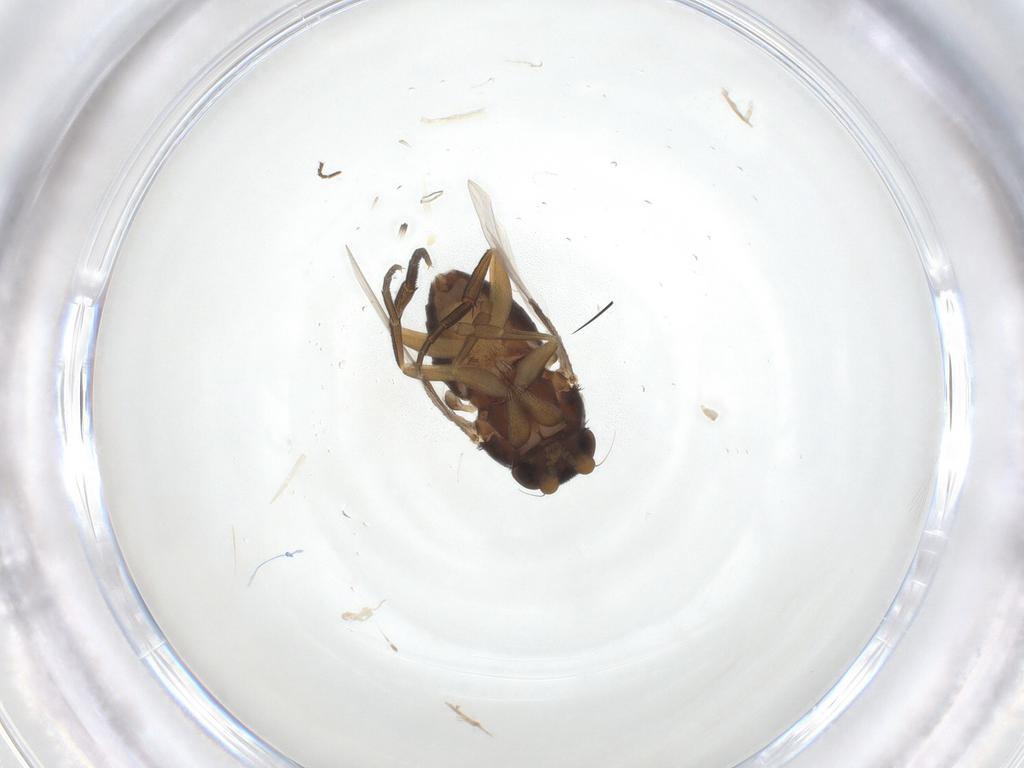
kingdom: Animalia
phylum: Arthropoda
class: Insecta
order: Diptera
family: Phoridae
